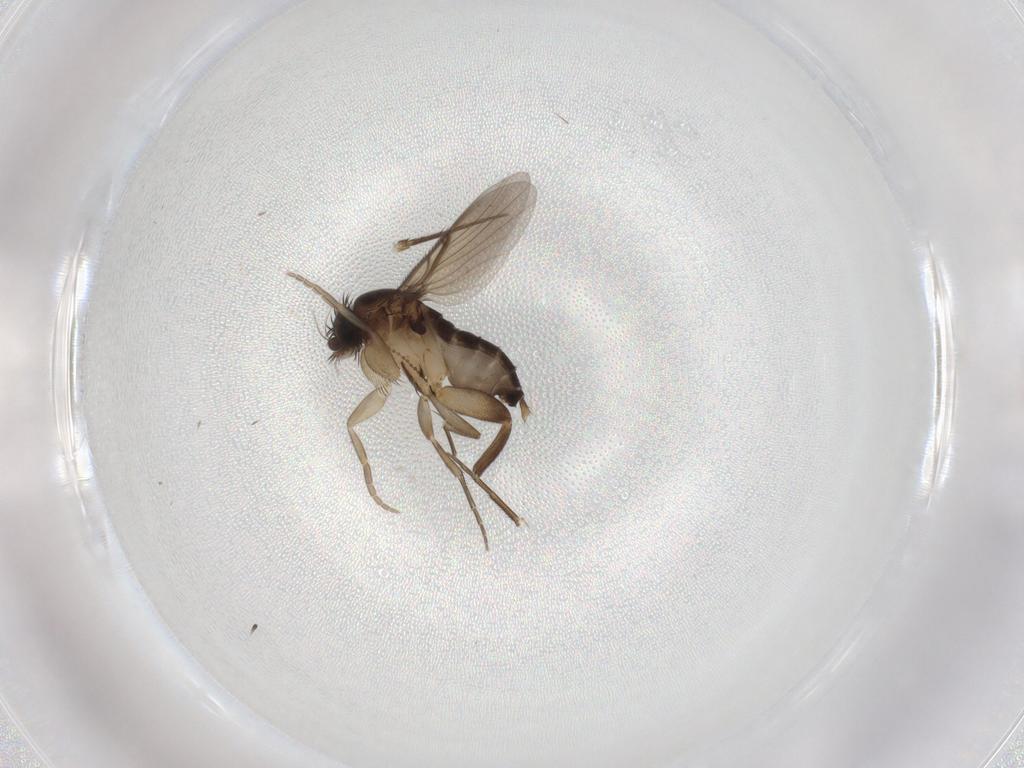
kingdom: Animalia
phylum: Arthropoda
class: Insecta
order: Diptera
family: Phoridae
